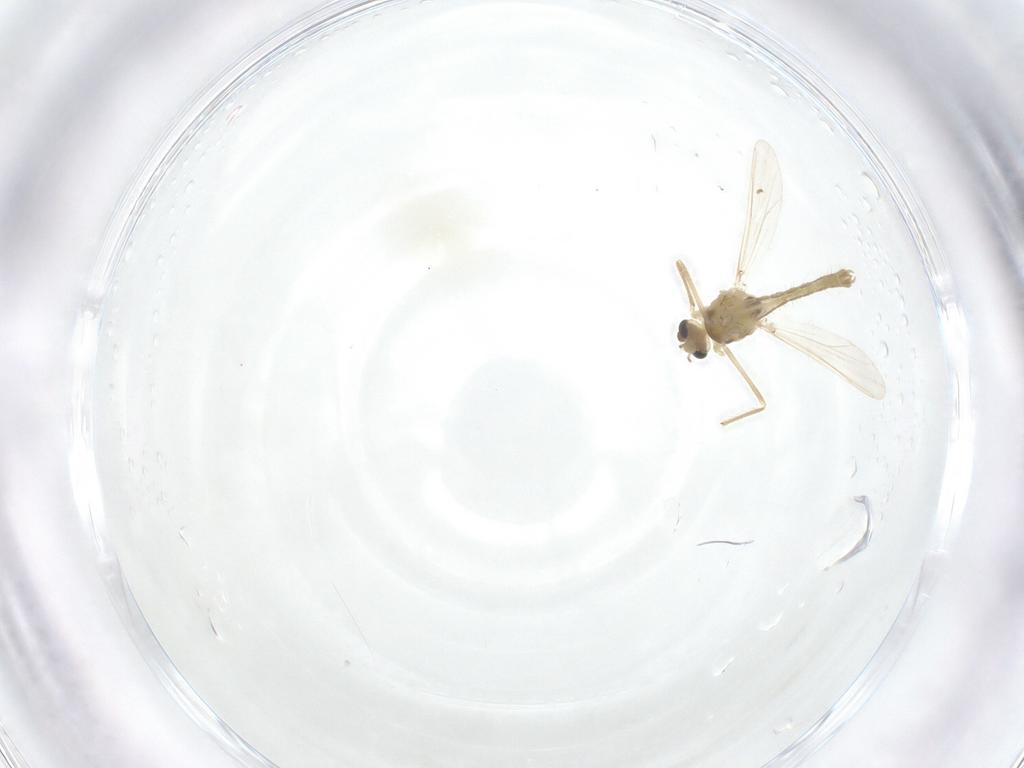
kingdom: Animalia
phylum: Arthropoda
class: Insecta
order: Diptera
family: Chironomidae
